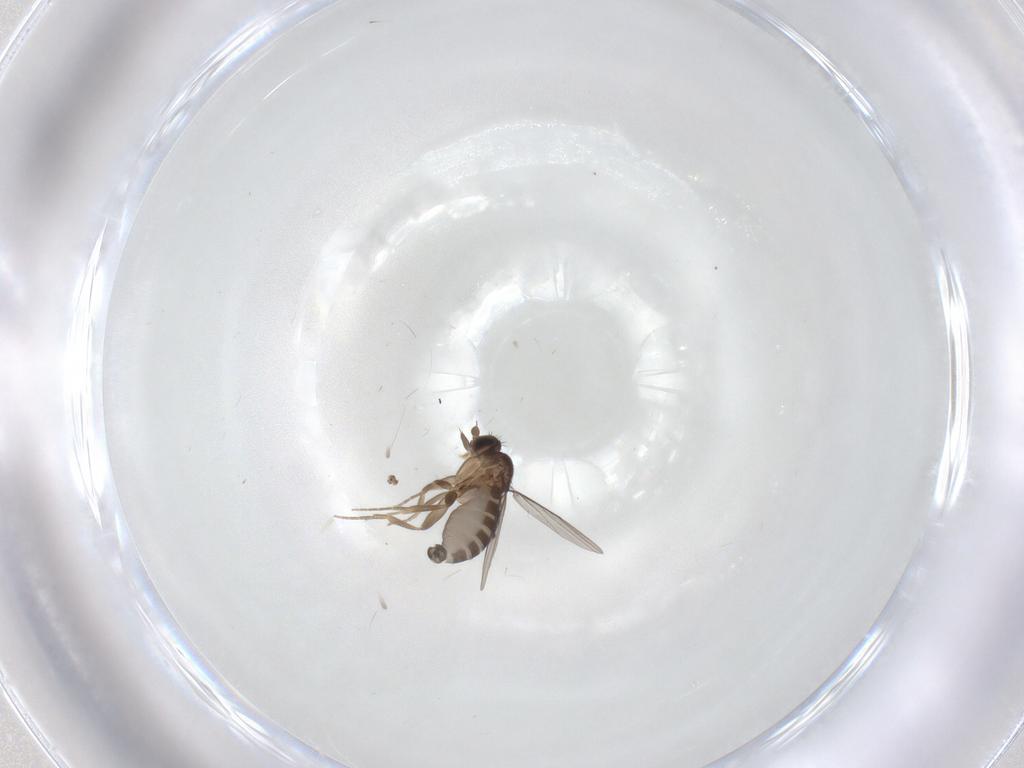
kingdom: Animalia
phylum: Arthropoda
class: Insecta
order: Diptera
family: Phoridae
